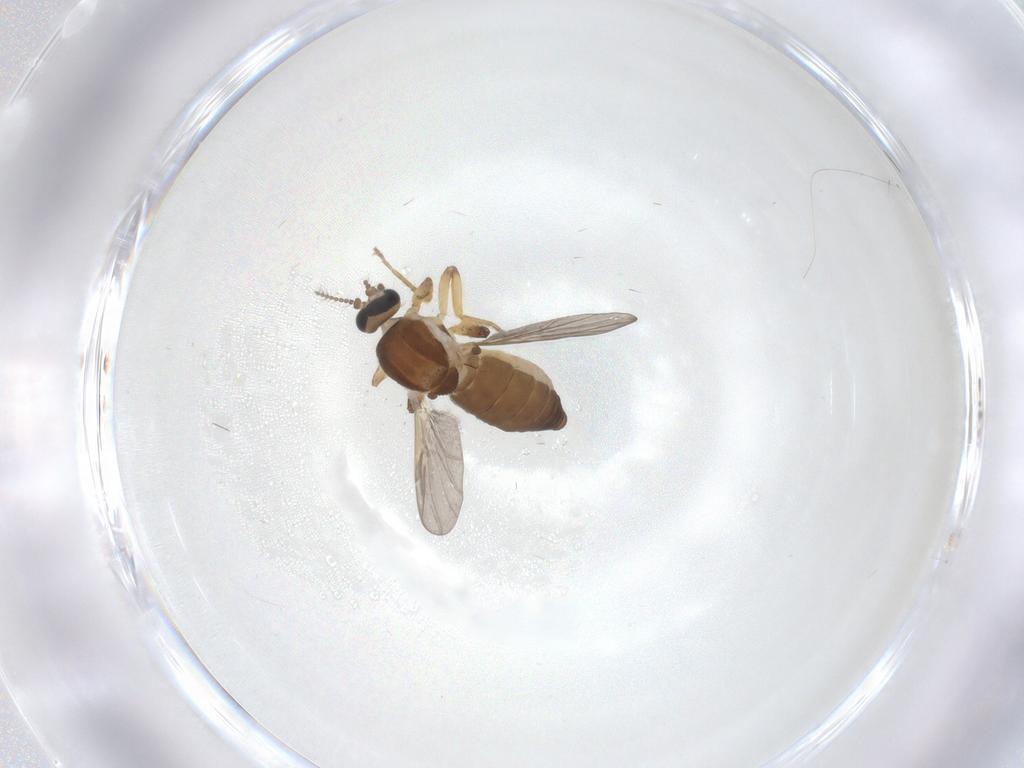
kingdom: Animalia
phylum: Arthropoda
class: Insecta
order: Diptera
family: Ceratopogonidae
